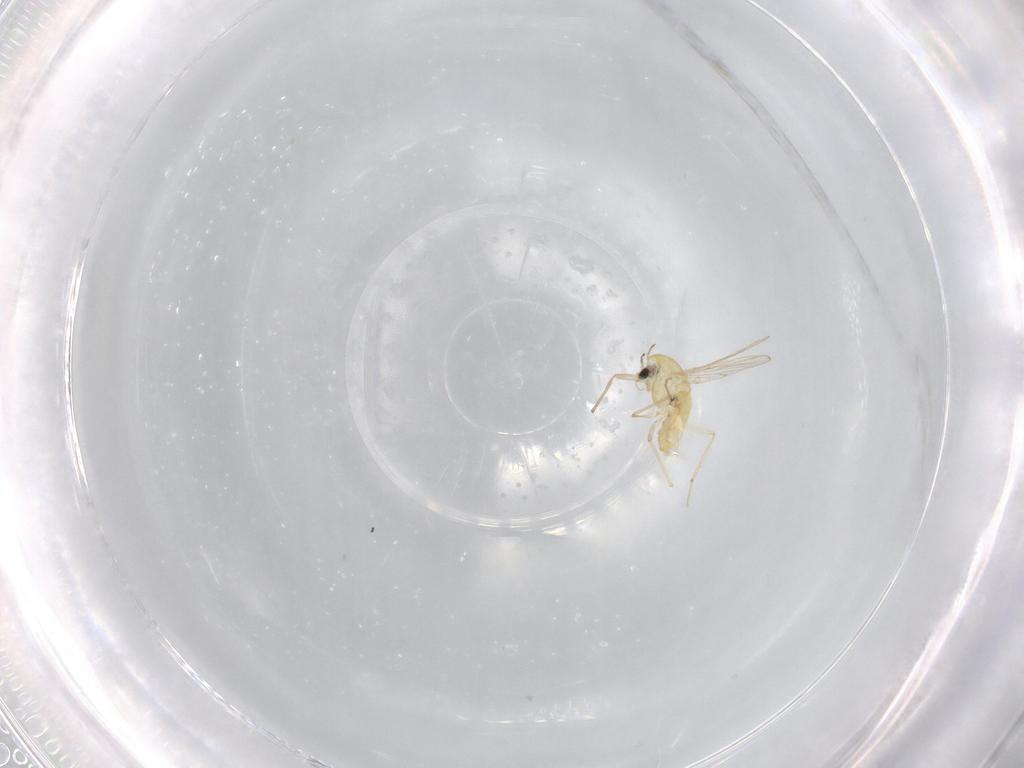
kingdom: Animalia
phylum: Arthropoda
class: Insecta
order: Diptera
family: Chironomidae
